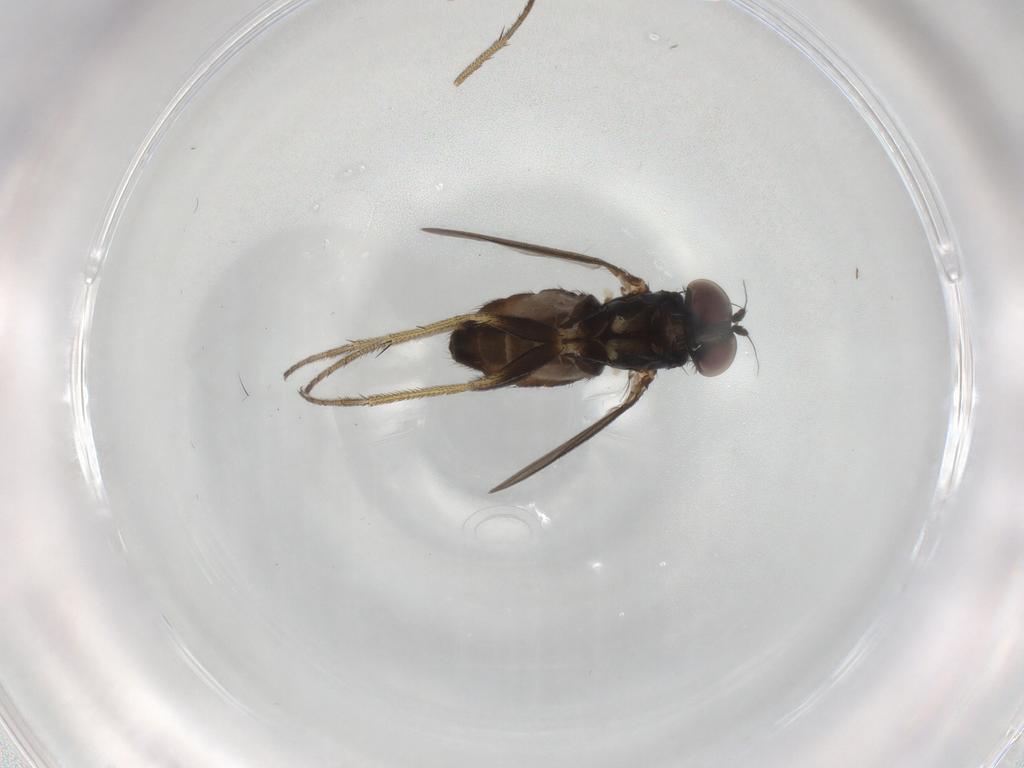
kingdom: Animalia
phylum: Arthropoda
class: Insecta
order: Diptera
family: Dolichopodidae
